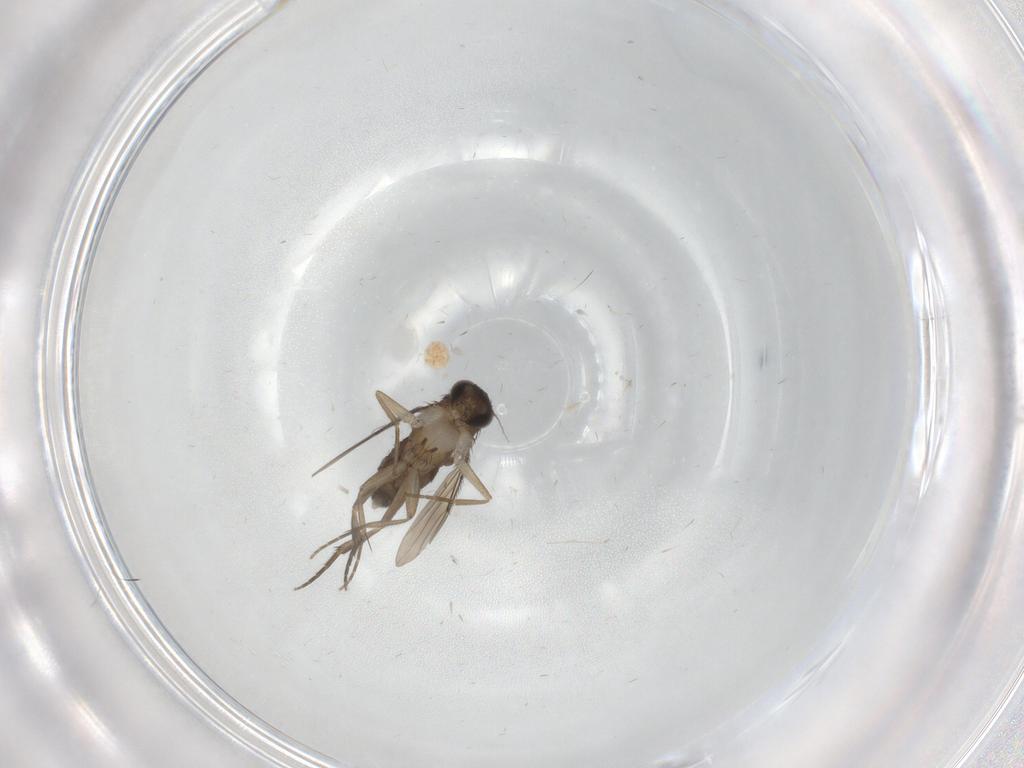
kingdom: Animalia
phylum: Arthropoda
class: Insecta
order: Diptera
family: Phoridae
